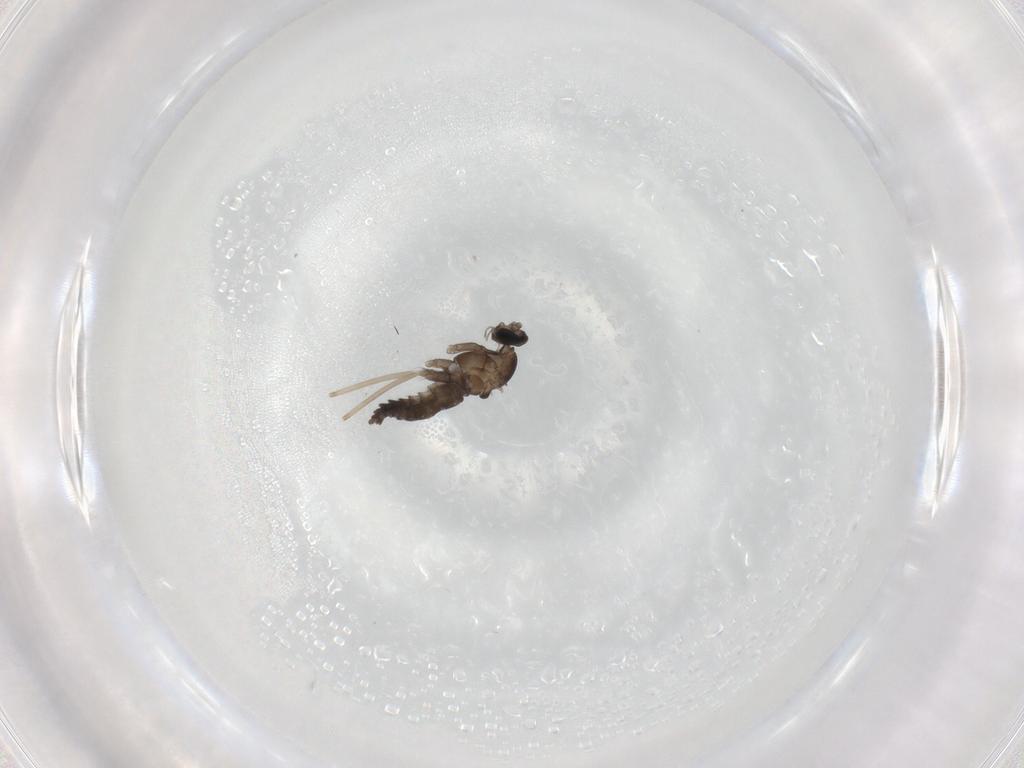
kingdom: Animalia
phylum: Arthropoda
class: Insecta
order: Diptera
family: Cecidomyiidae
